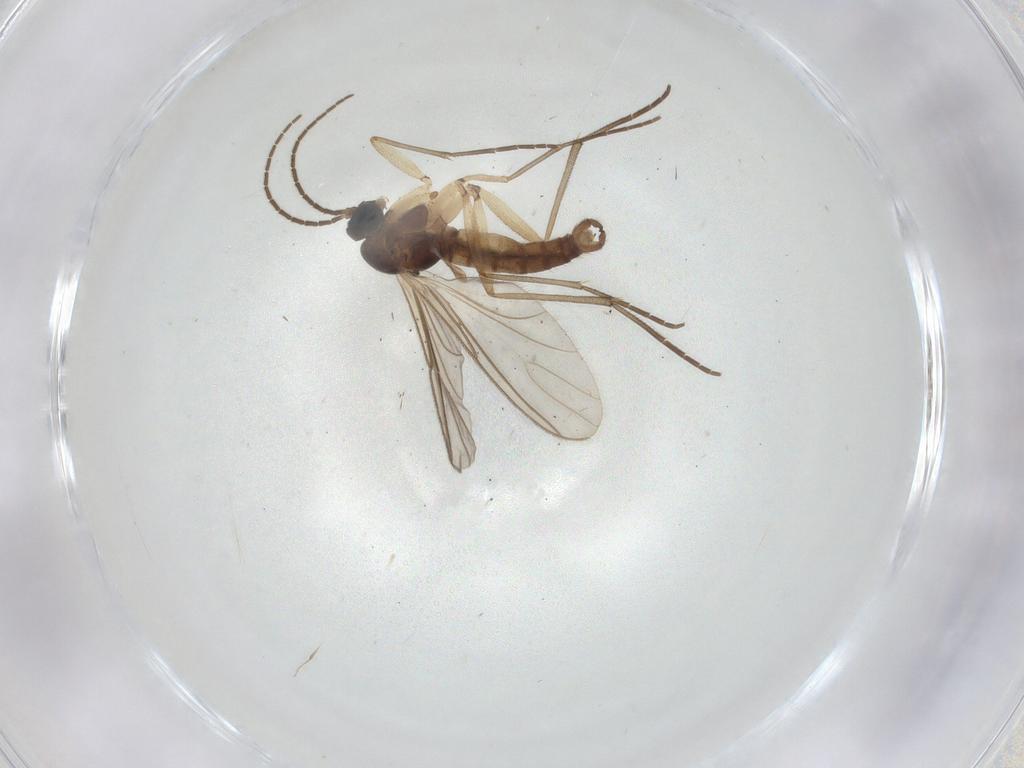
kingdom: Animalia
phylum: Arthropoda
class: Insecta
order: Diptera
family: Sciaridae
